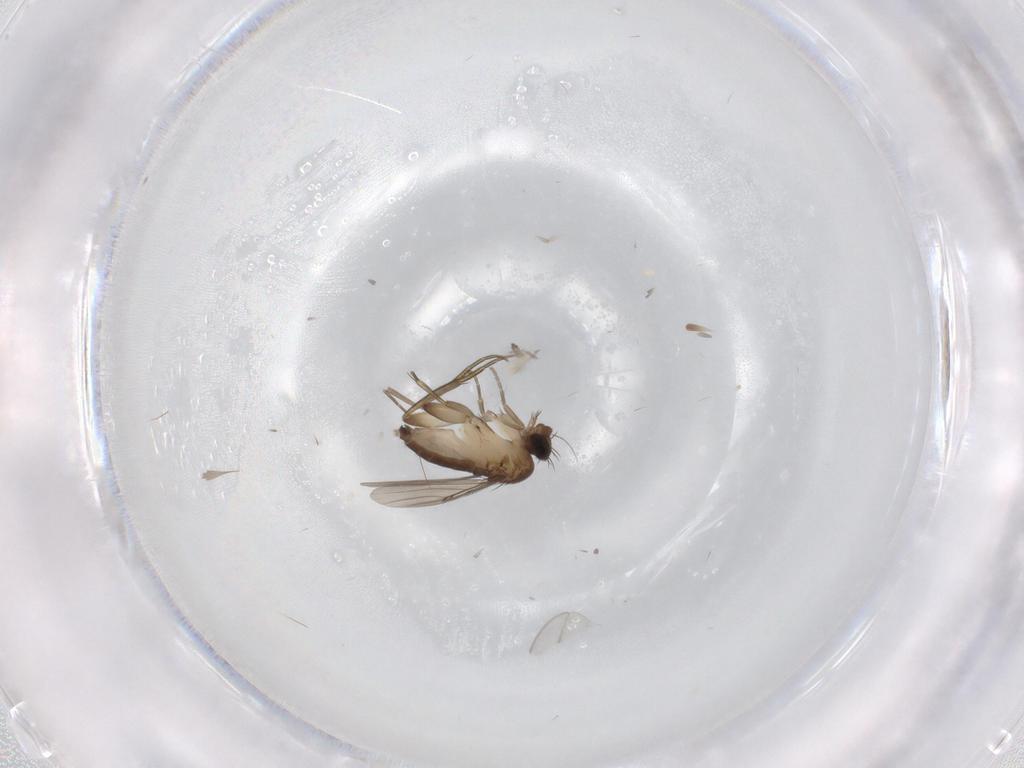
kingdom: Animalia
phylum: Arthropoda
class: Insecta
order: Diptera
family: Phoridae
